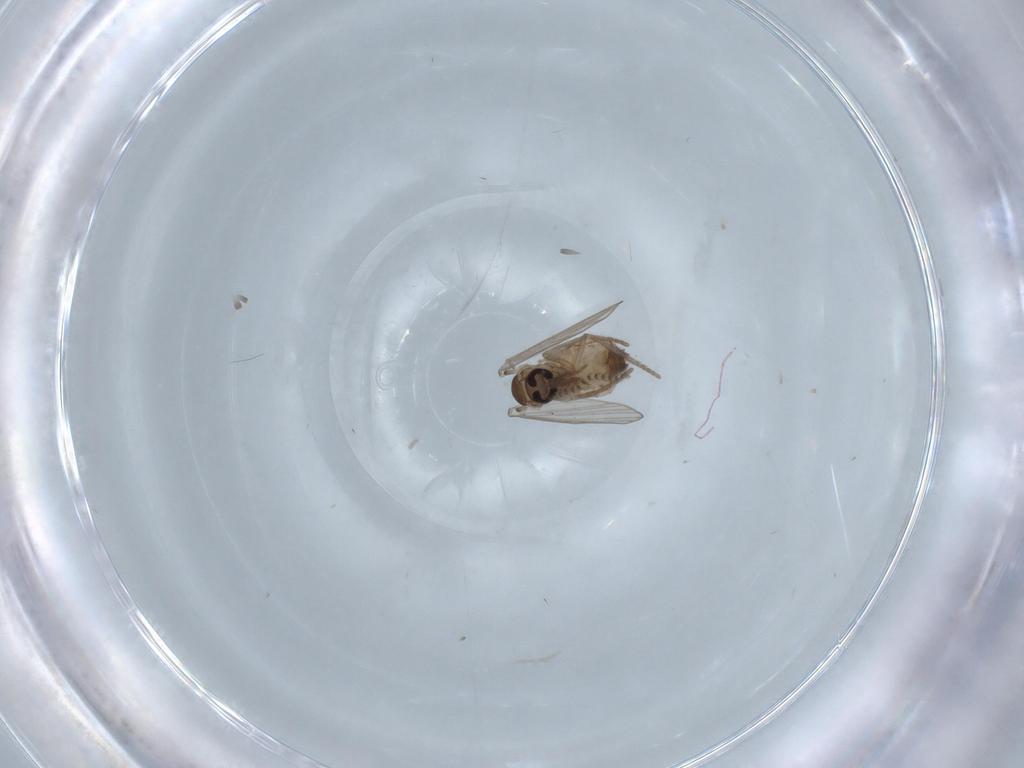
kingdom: Animalia
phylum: Arthropoda
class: Insecta
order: Diptera
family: Psychodidae
